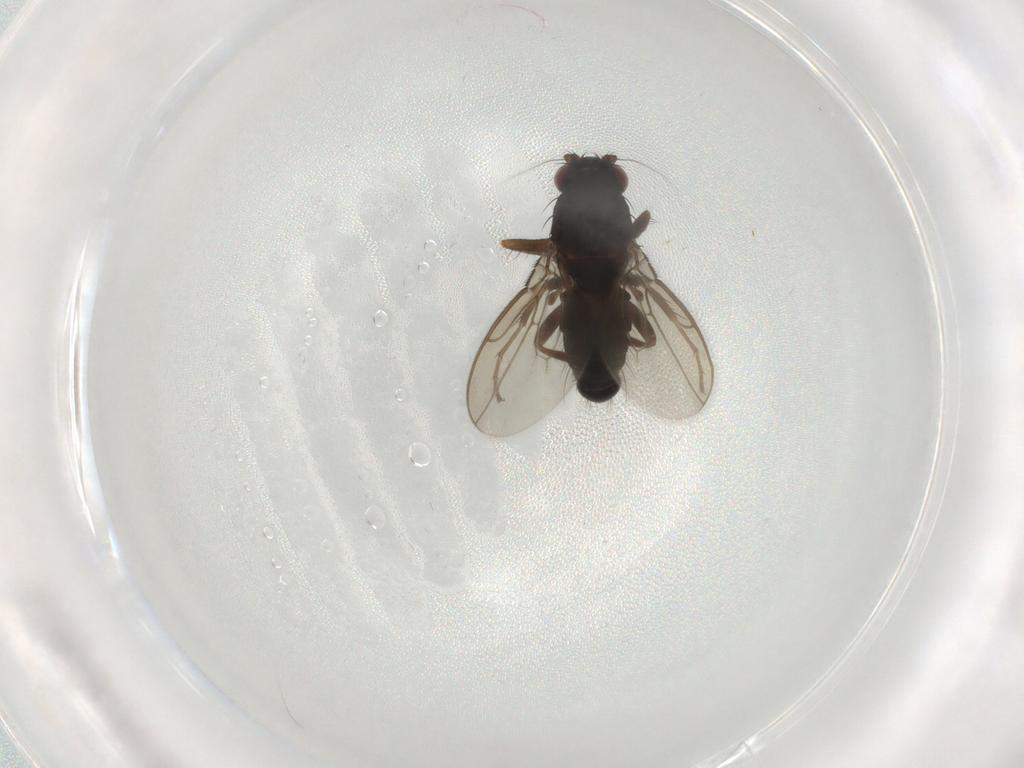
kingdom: Animalia
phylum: Arthropoda
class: Insecta
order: Diptera
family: Sphaeroceridae
